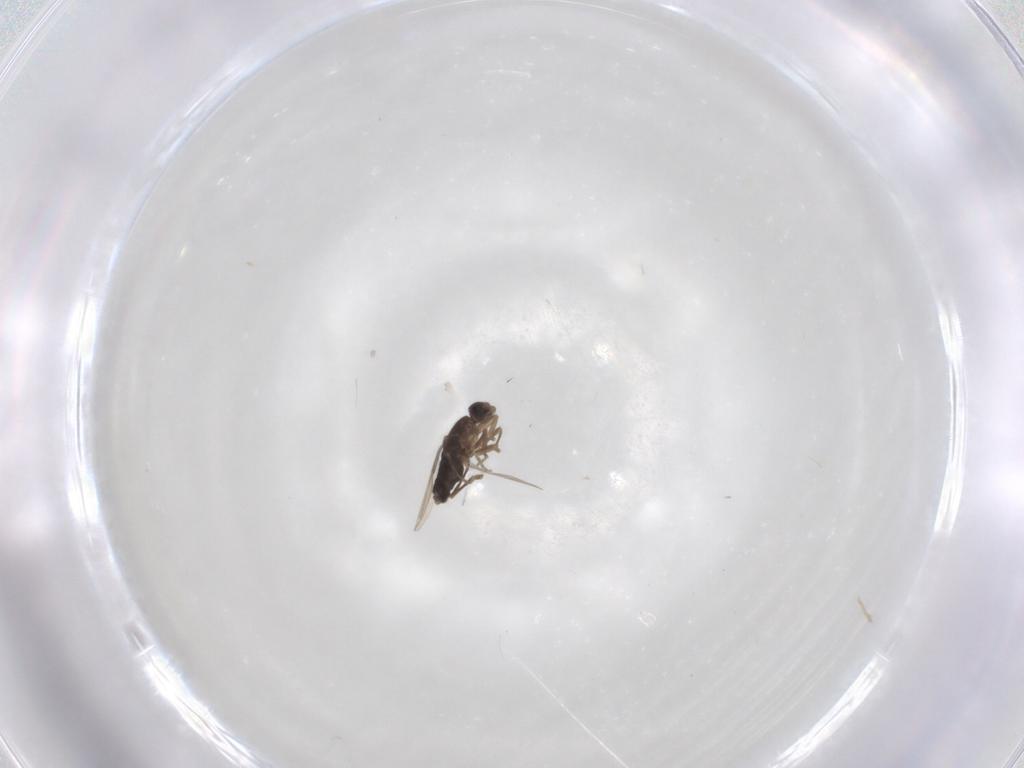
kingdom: Animalia
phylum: Arthropoda
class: Insecta
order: Diptera
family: Phoridae
